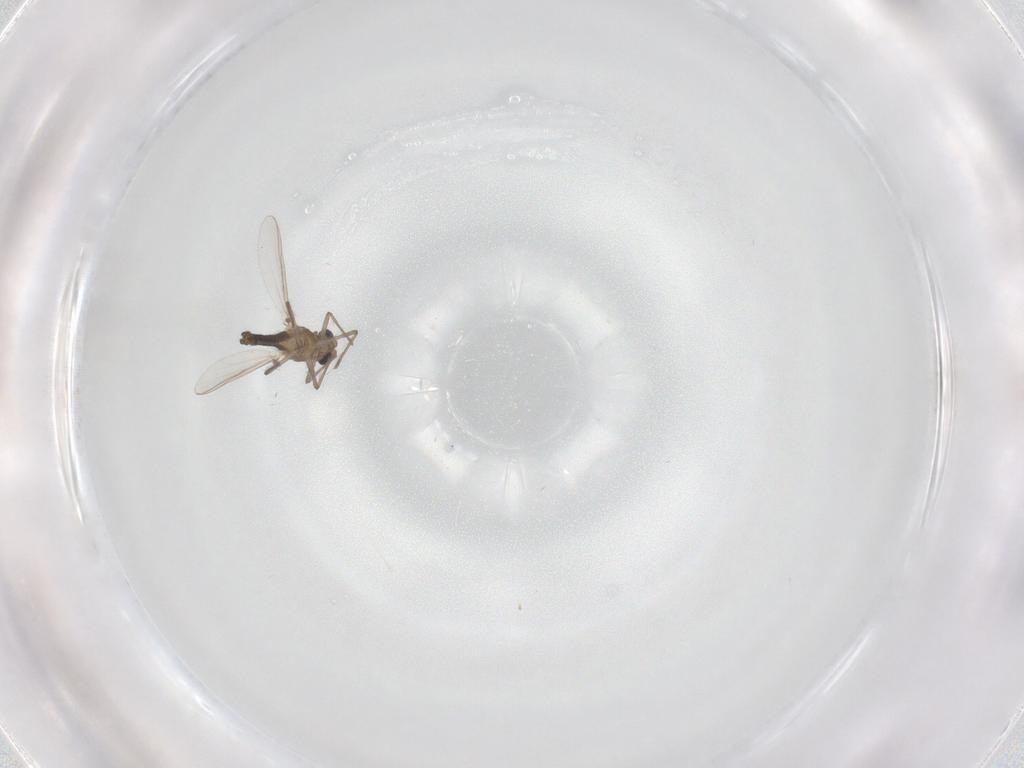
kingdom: Animalia
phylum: Arthropoda
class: Insecta
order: Diptera
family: Chironomidae
